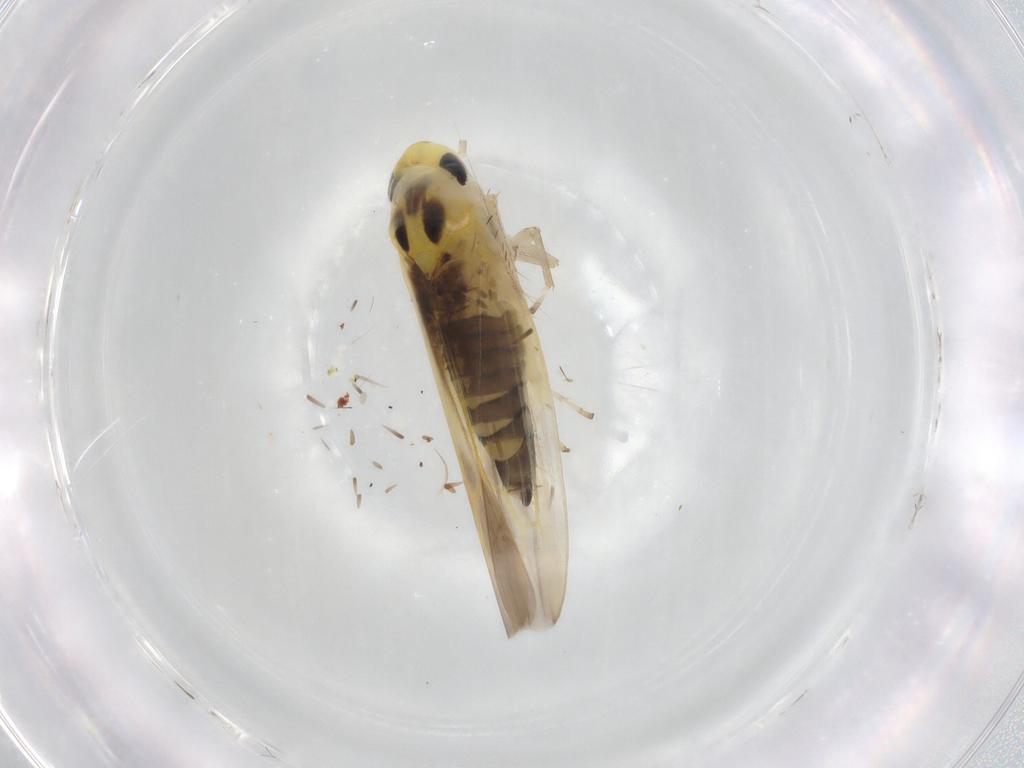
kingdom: Animalia
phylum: Arthropoda
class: Insecta
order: Hemiptera
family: Cicadellidae
